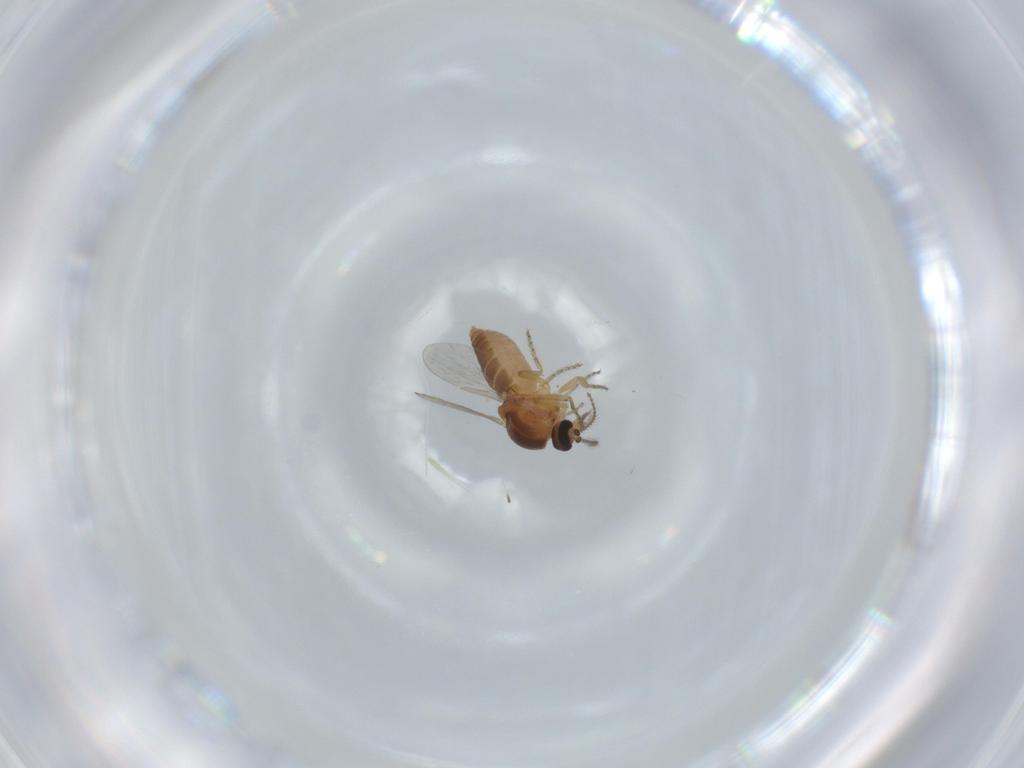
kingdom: Animalia
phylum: Arthropoda
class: Insecta
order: Diptera
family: Ceratopogonidae
